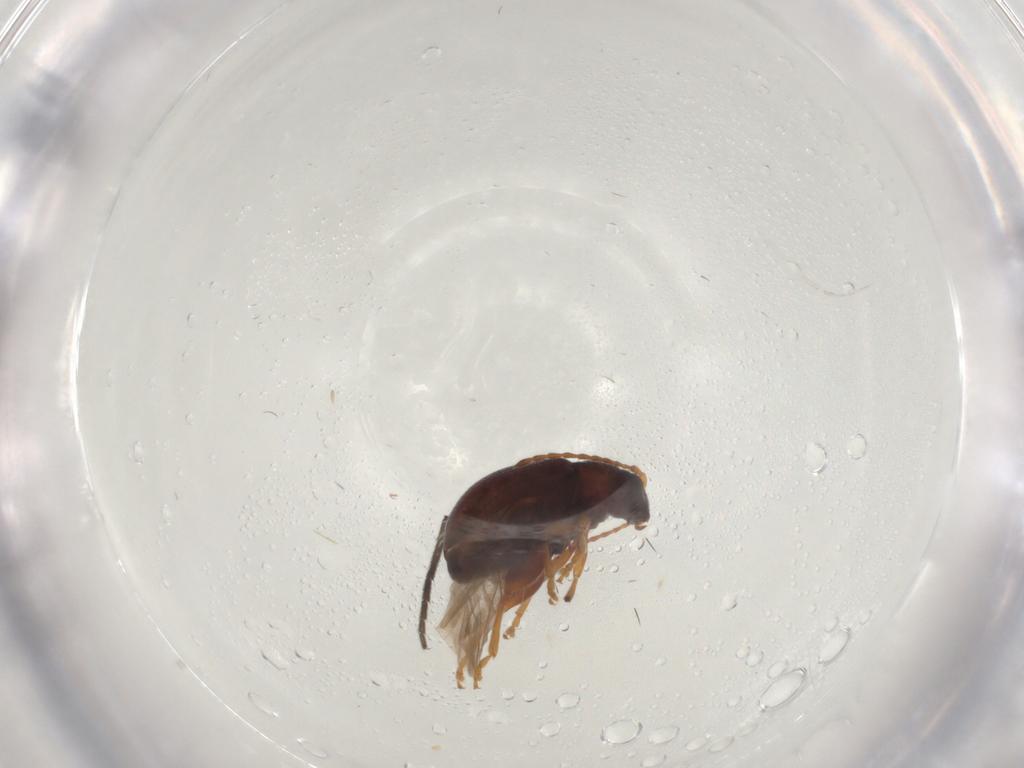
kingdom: Animalia
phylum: Arthropoda
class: Insecta
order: Coleoptera
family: Chrysomelidae
